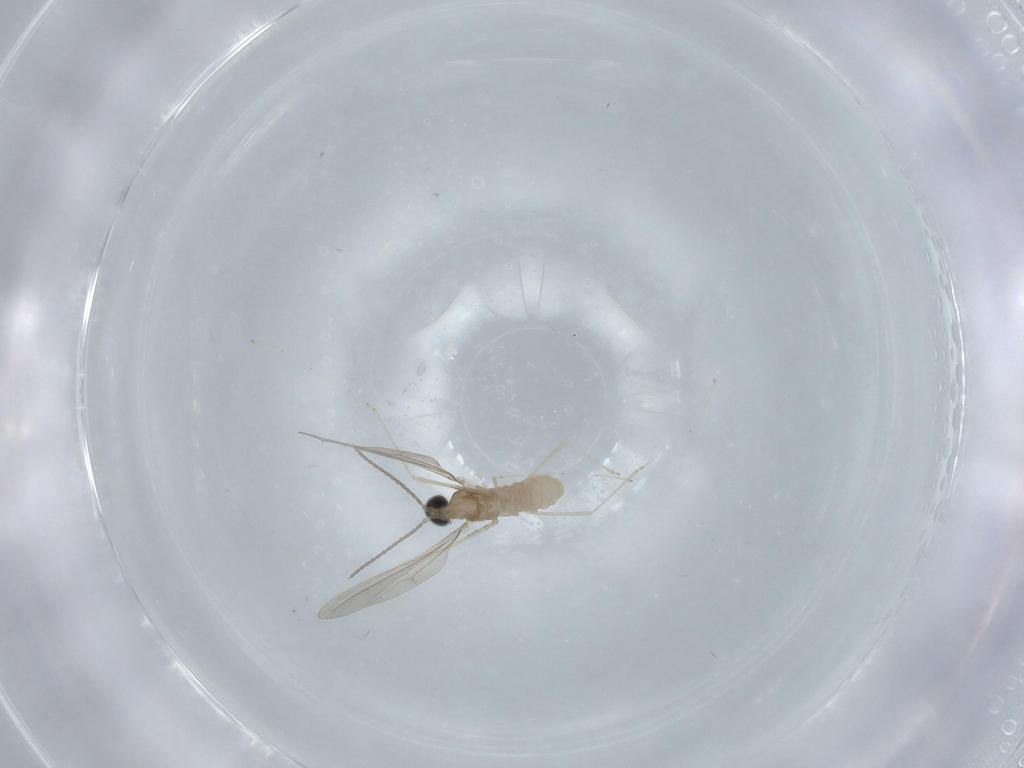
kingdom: Animalia
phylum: Arthropoda
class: Insecta
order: Diptera
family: Cecidomyiidae
